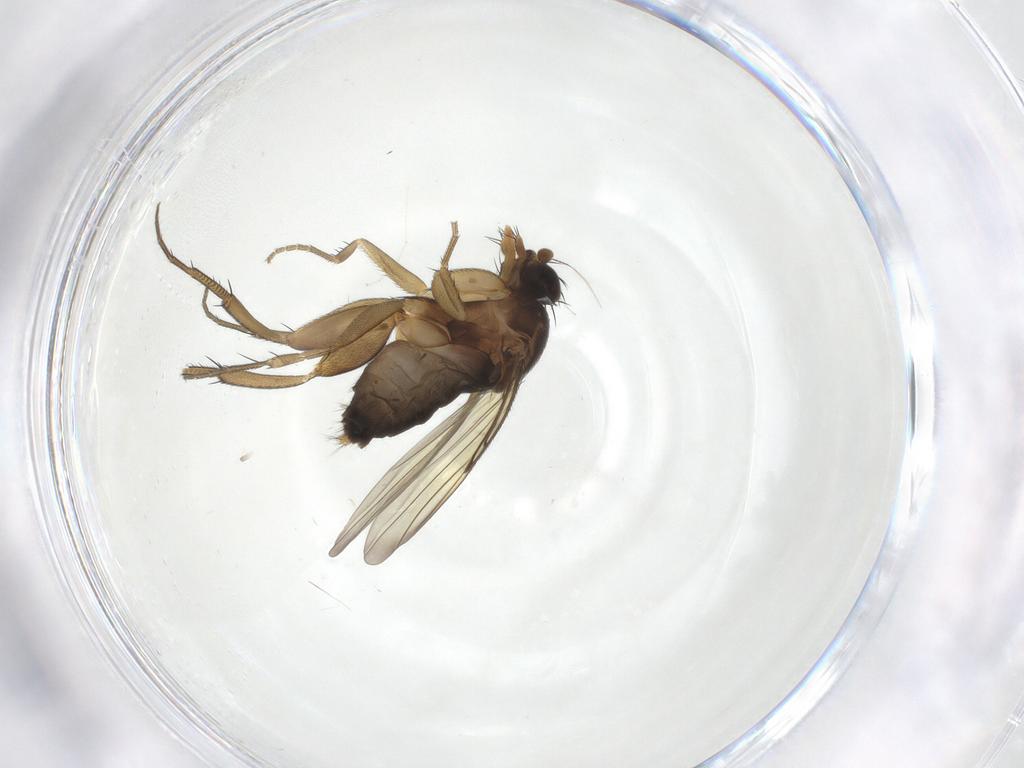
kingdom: Animalia
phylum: Arthropoda
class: Insecta
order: Diptera
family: Phoridae
